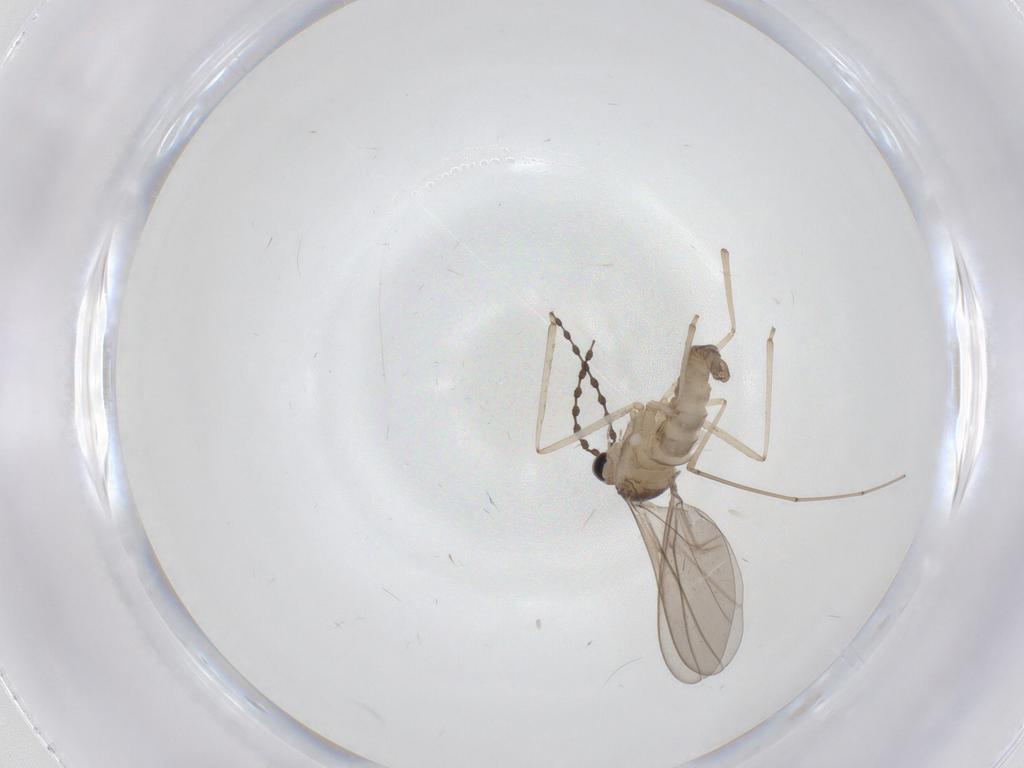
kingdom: Animalia
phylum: Arthropoda
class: Insecta
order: Diptera
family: Cecidomyiidae
